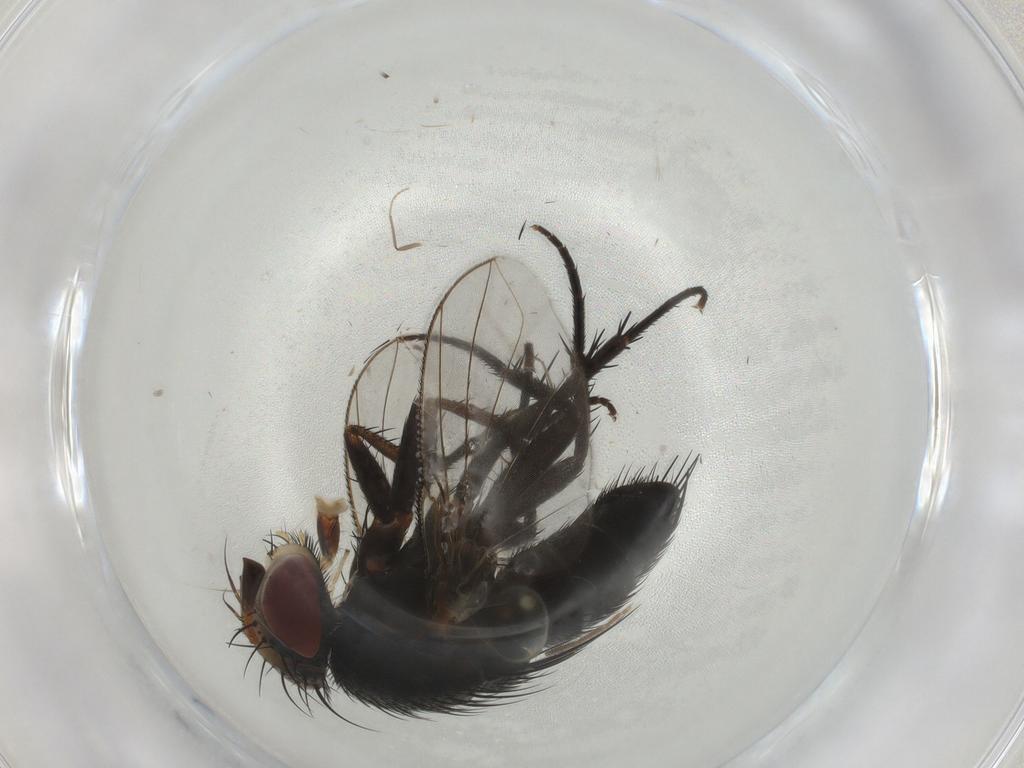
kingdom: Animalia
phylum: Arthropoda
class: Insecta
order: Diptera
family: Tachinidae
